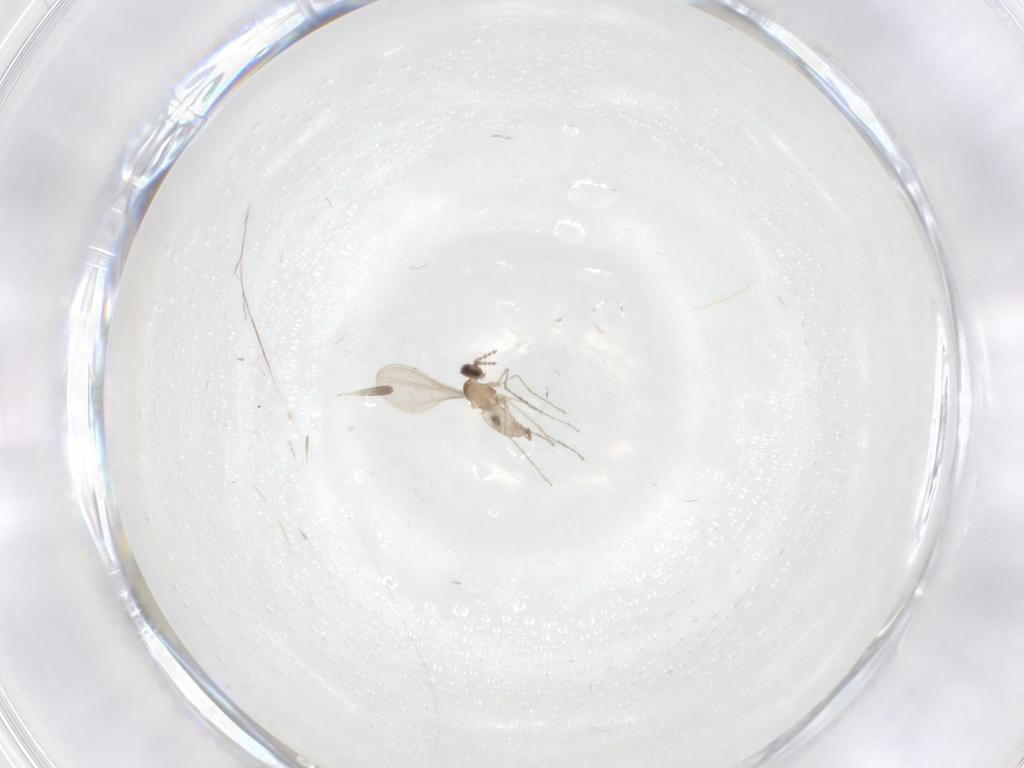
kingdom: Animalia
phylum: Arthropoda
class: Insecta
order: Diptera
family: Cecidomyiidae
